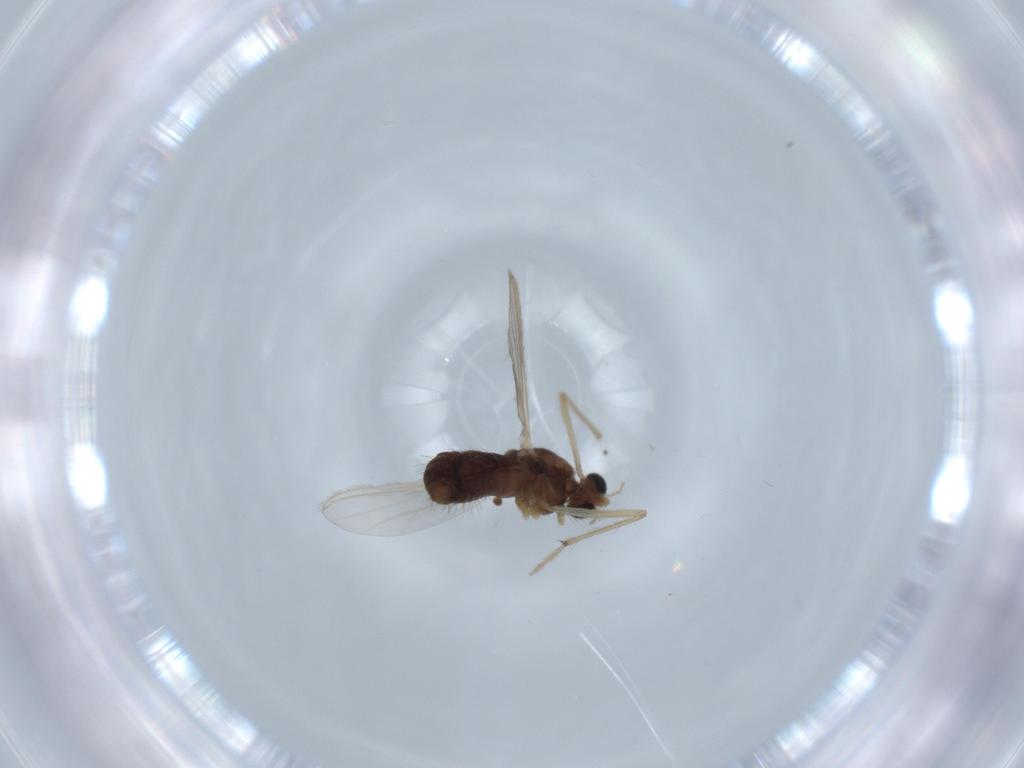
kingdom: Animalia
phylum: Arthropoda
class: Insecta
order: Diptera
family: Chironomidae
